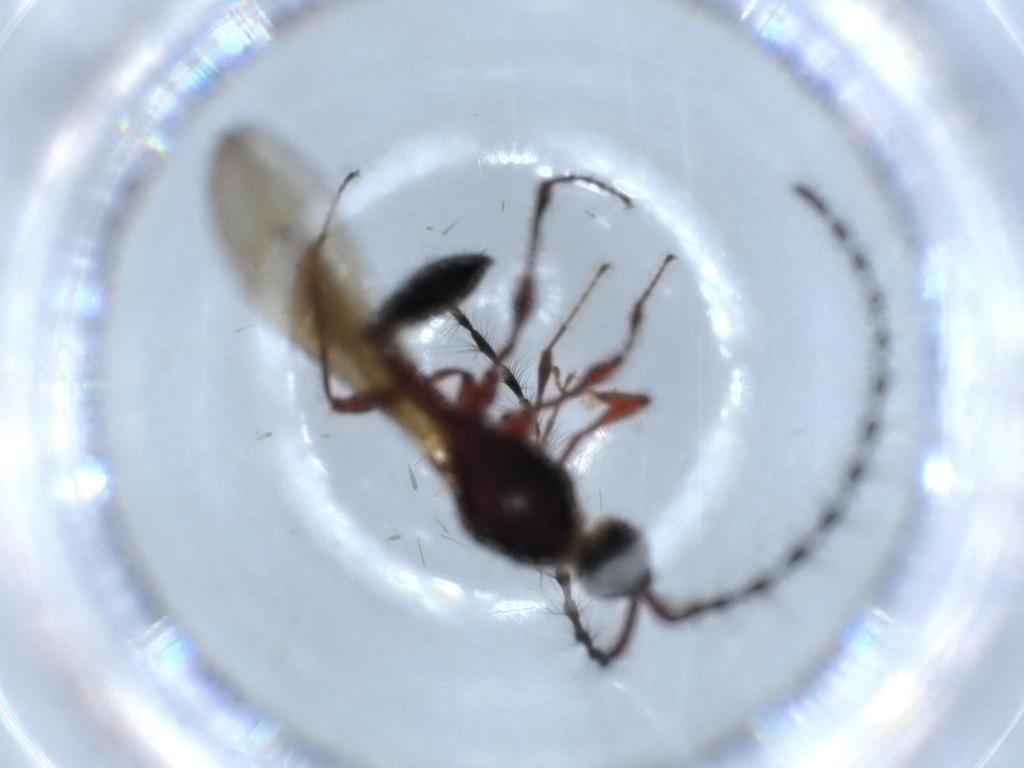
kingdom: Animalia
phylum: Arthropoda
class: Insecta
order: Hymenoptera
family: Diapriidae
